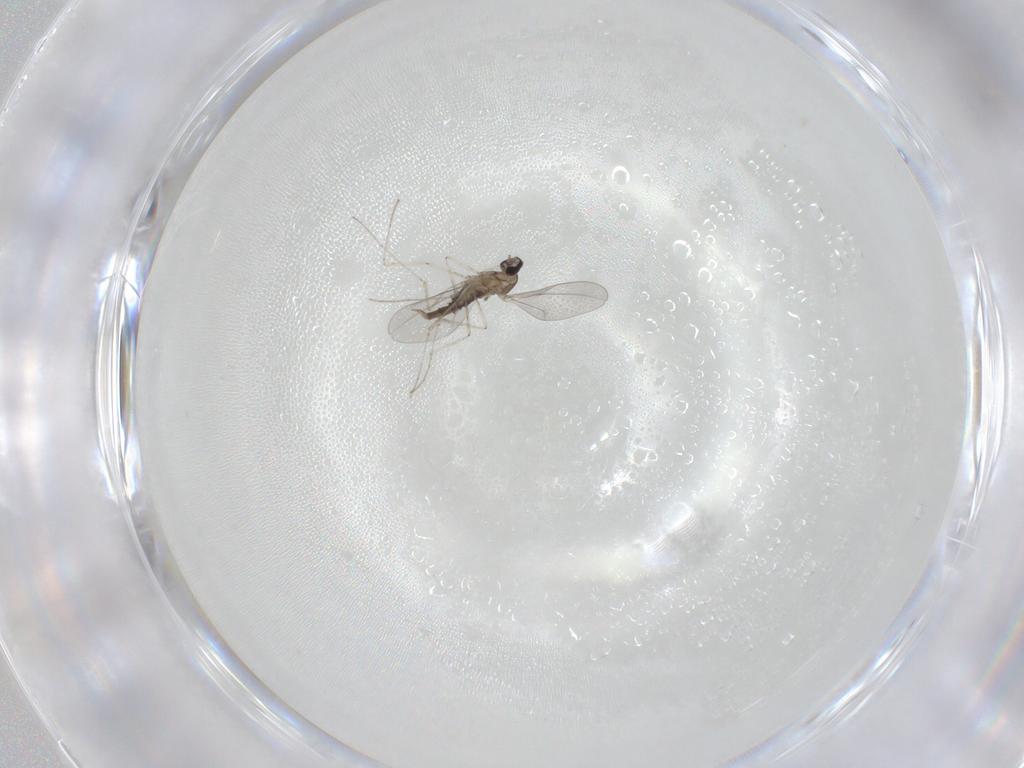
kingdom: Animalia
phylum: Arthropoda
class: Insecta
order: Diptera
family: Cecidomyiidae
